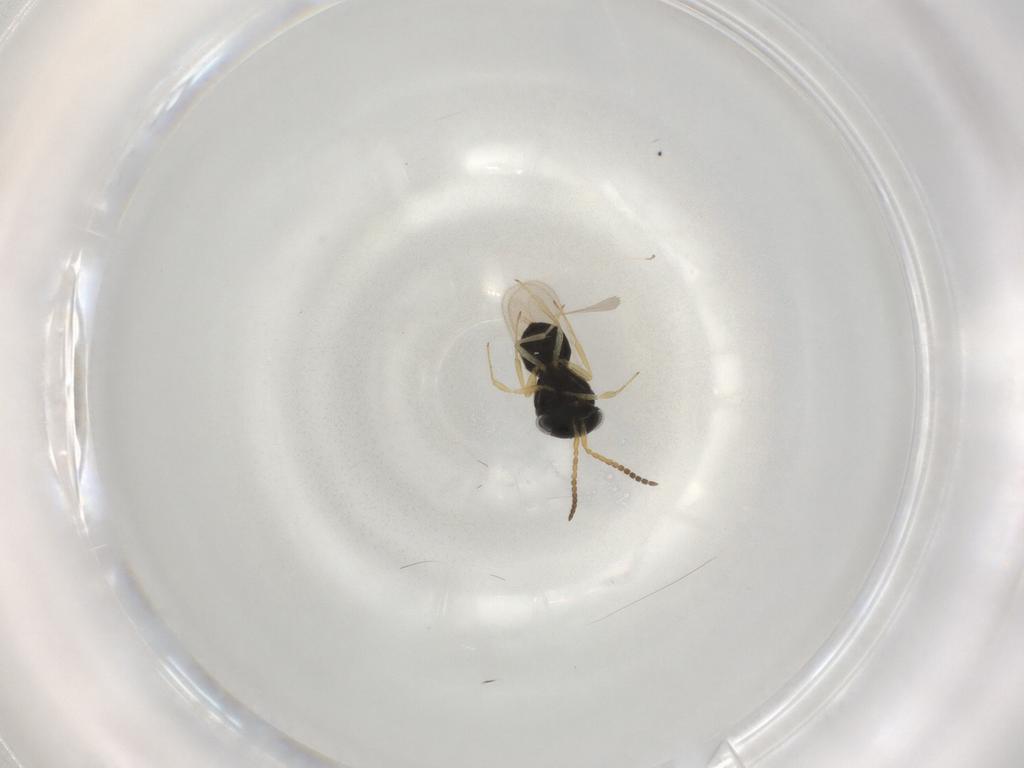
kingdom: Animalia
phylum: Arthropoda
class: Insecta
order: Hymenoptera
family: Scelionidae
